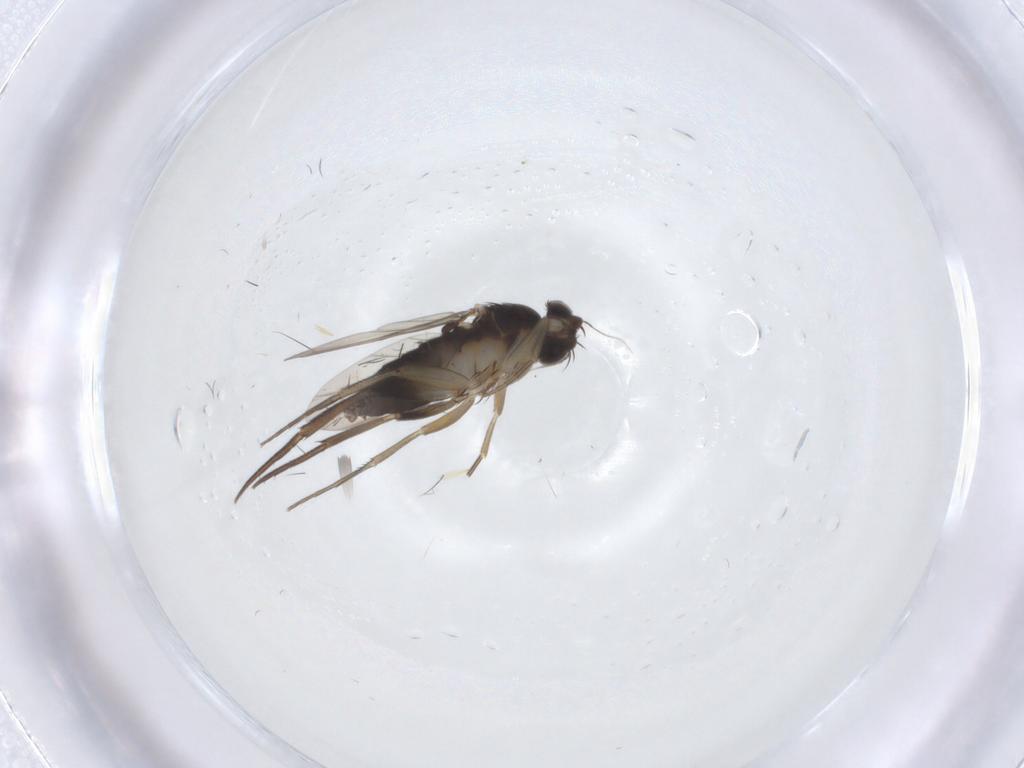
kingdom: Animalia
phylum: Arthropoda
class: Insecta
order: Diptera
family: Phoridae
